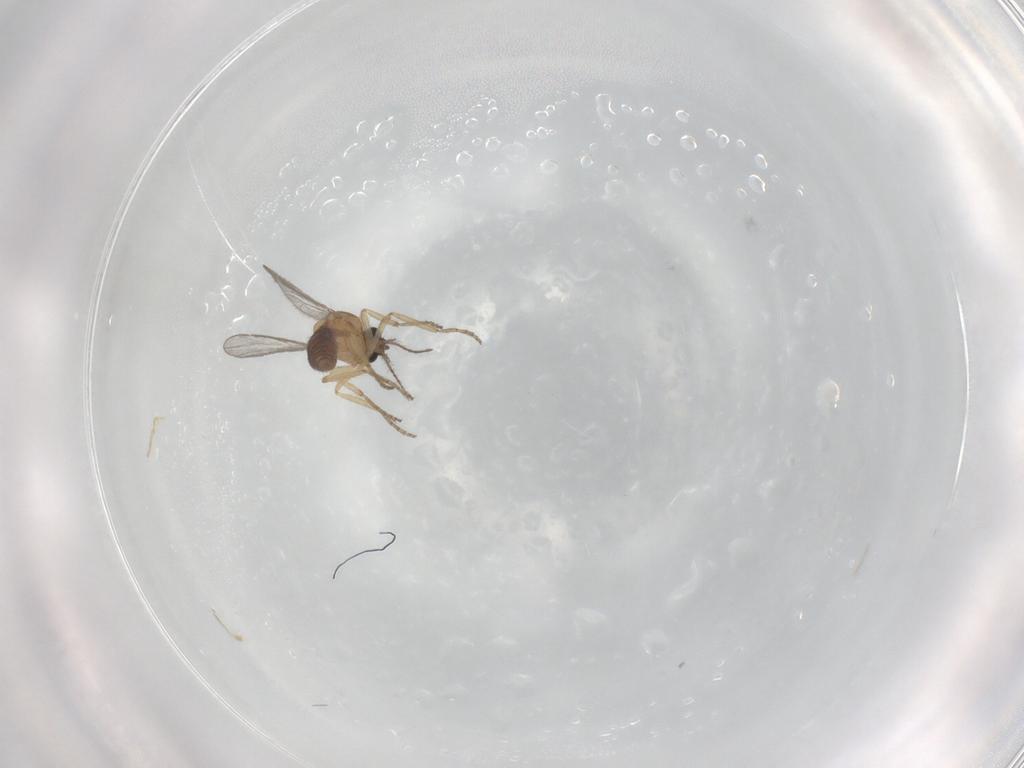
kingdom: Animalia
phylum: Arthropoda
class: Insecta
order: Diptera
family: Ceratopogonidae
